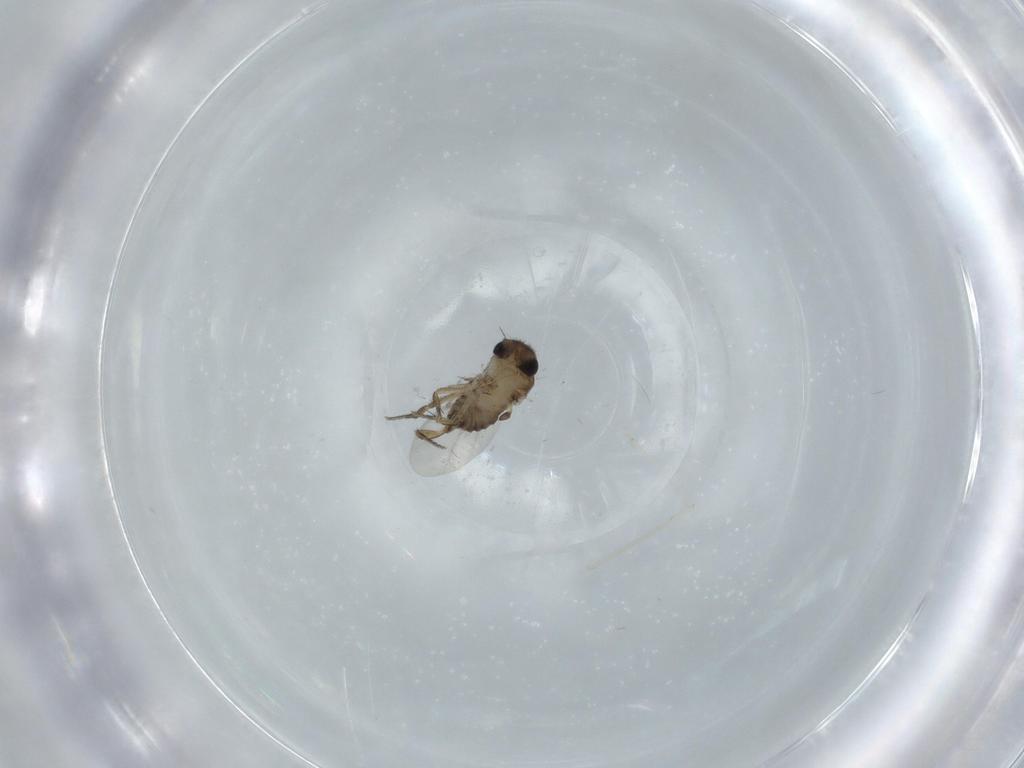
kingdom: Animalia
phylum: Arthropoda
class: Insecta
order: Diptera
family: Cecidomyiidae
